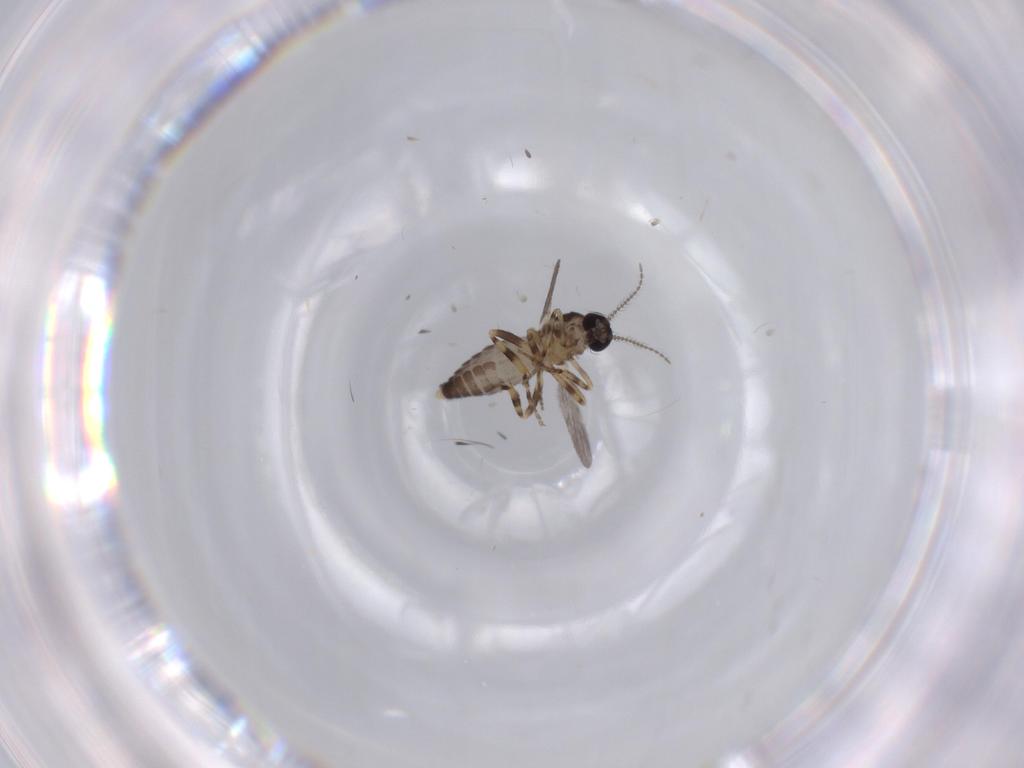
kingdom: Animalia
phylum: Arthropoda
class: Insecta
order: Diptera
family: Ceratopogonidae
